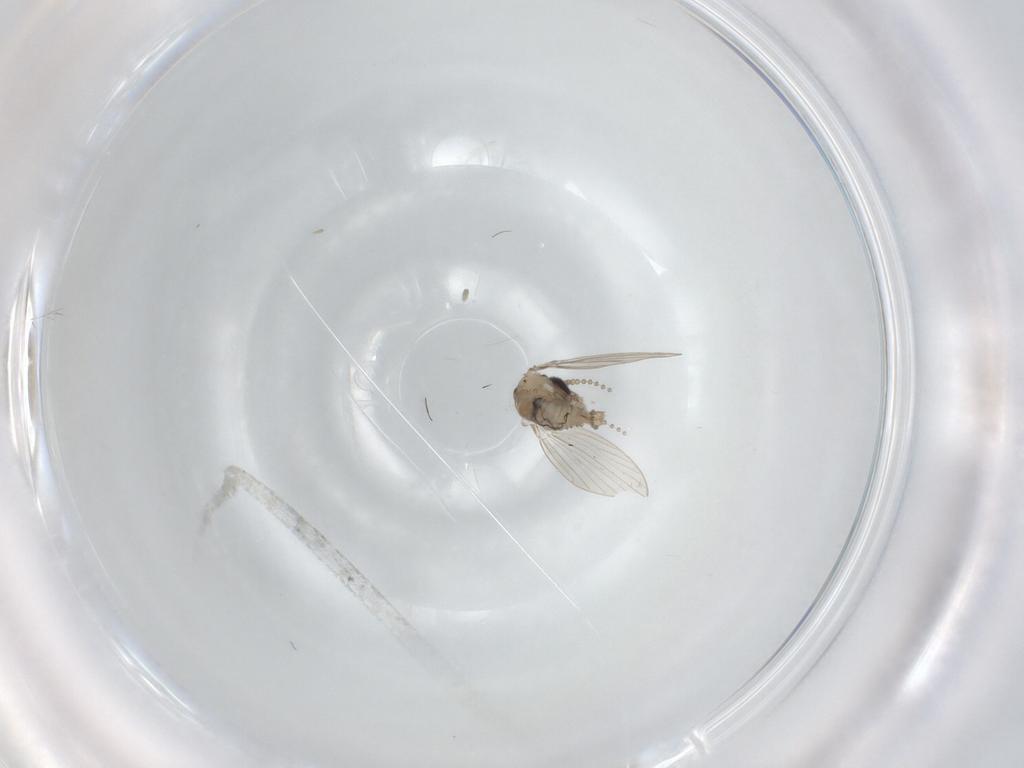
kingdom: Animalia
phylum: Arthropoda
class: Insecta
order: Diptera
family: Psychodidae
